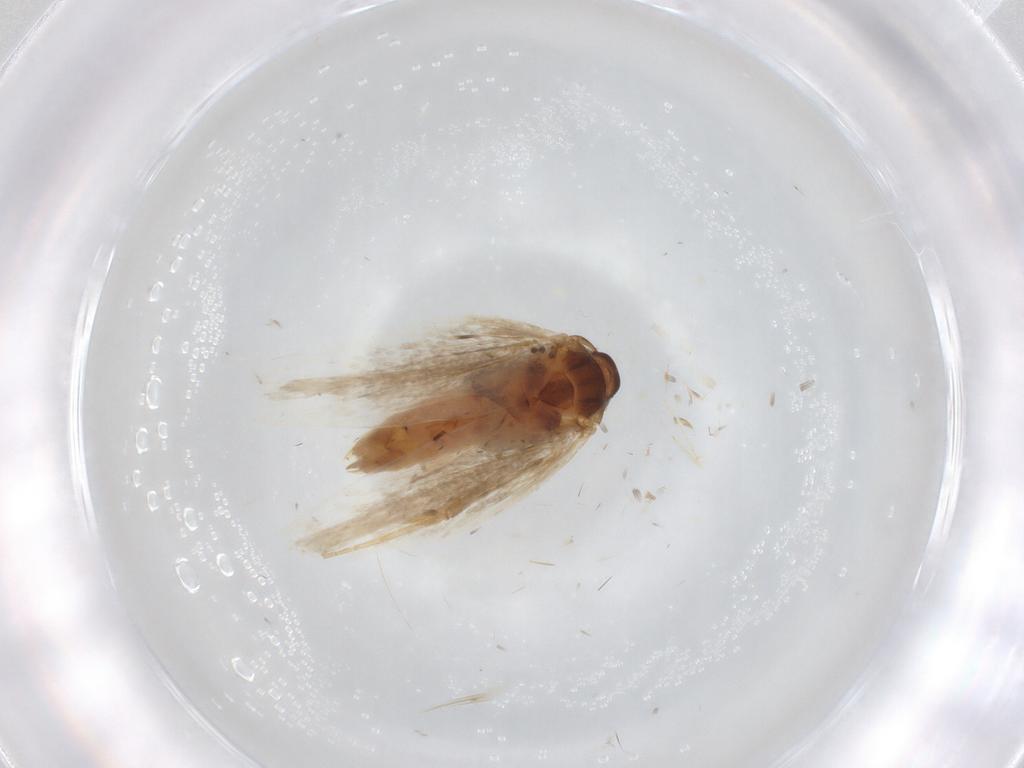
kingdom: Animalia
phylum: Arthropoda
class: Insecta
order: Lepidoptera
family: Gelechiidae
